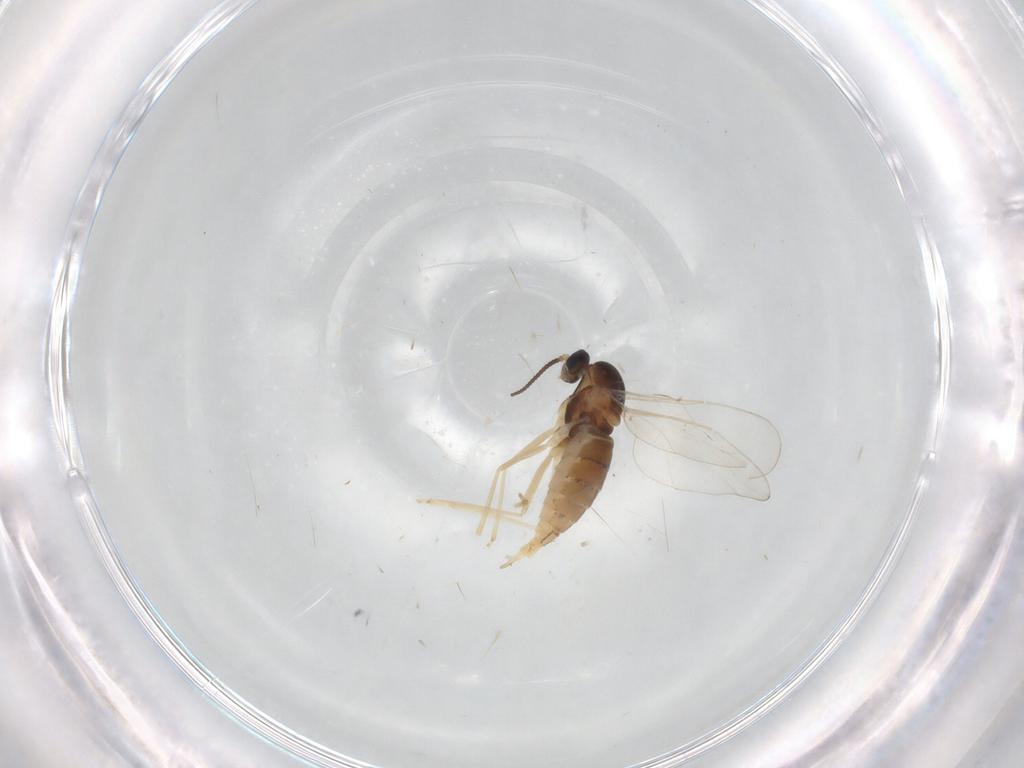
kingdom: Animalia
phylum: Arthropoda
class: Insecta
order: Diptera
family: Cecidomyiidae
